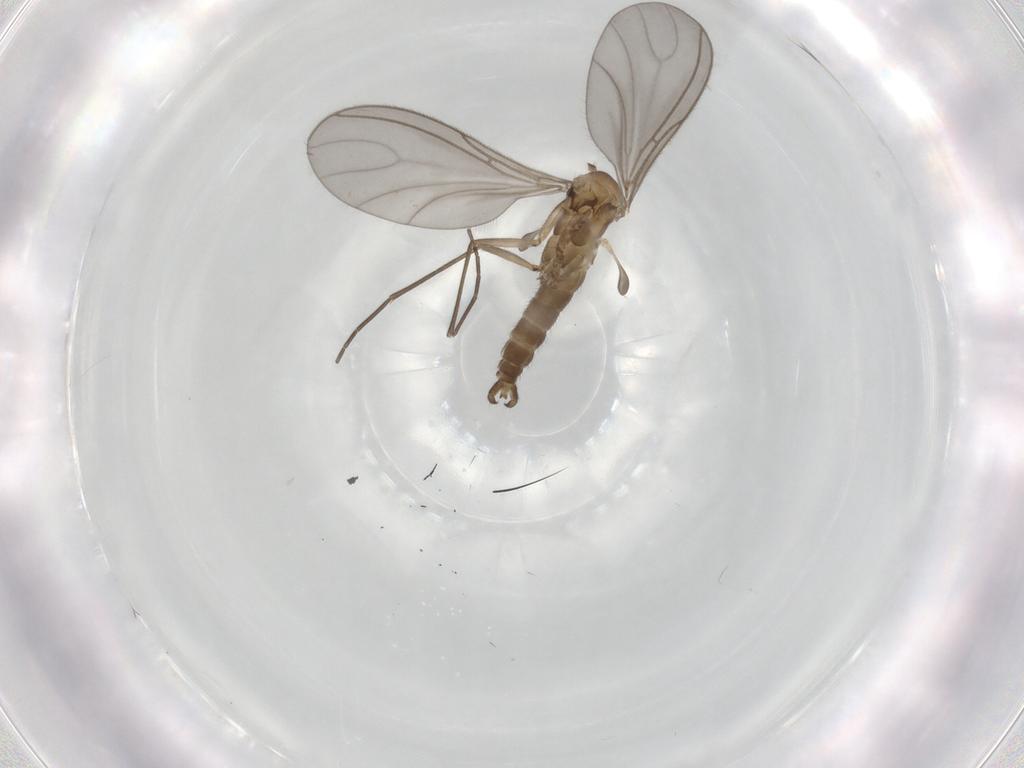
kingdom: Animalia
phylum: Arthropoda
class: Insecta
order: Diptera
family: Sciaridae
